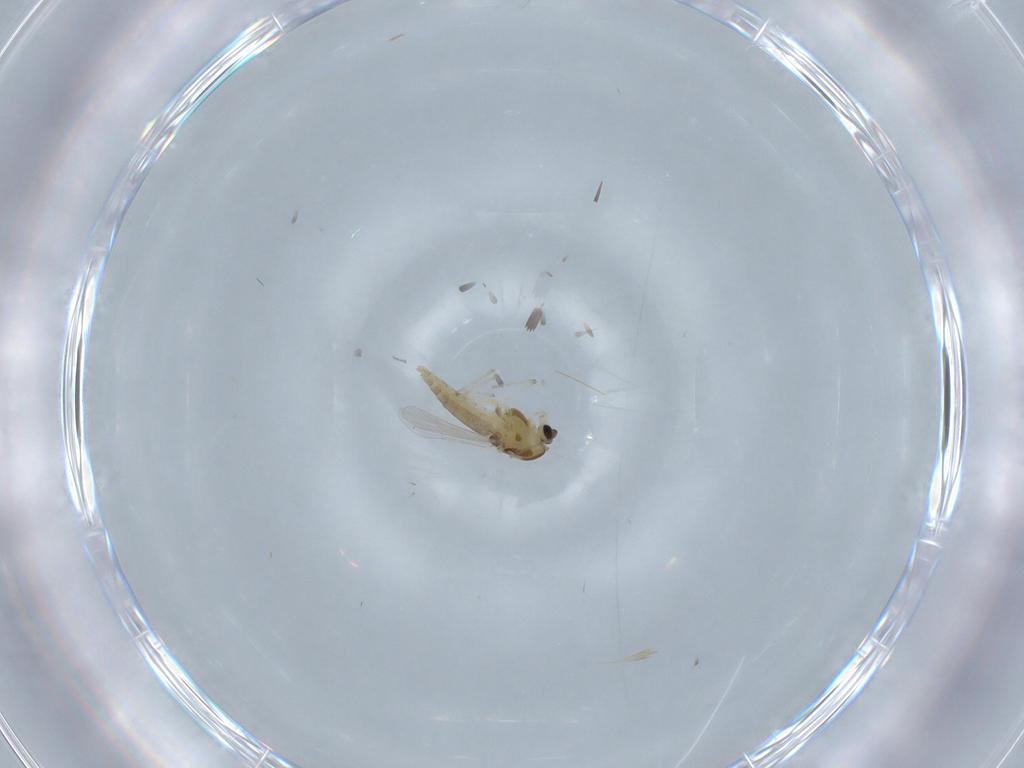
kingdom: Animalia
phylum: Arthropoda
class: Insecta
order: Diptera
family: Chironomidae
